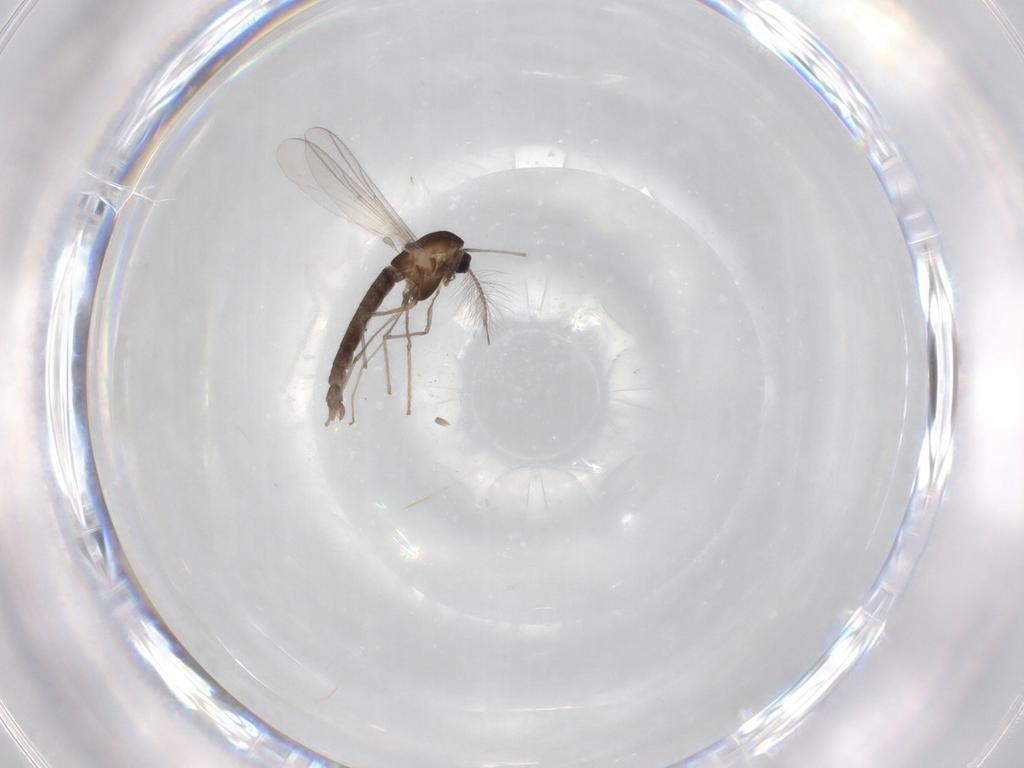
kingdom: Animalia
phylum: Arthropoda
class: Insecta
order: Diptera
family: Chironomidae
